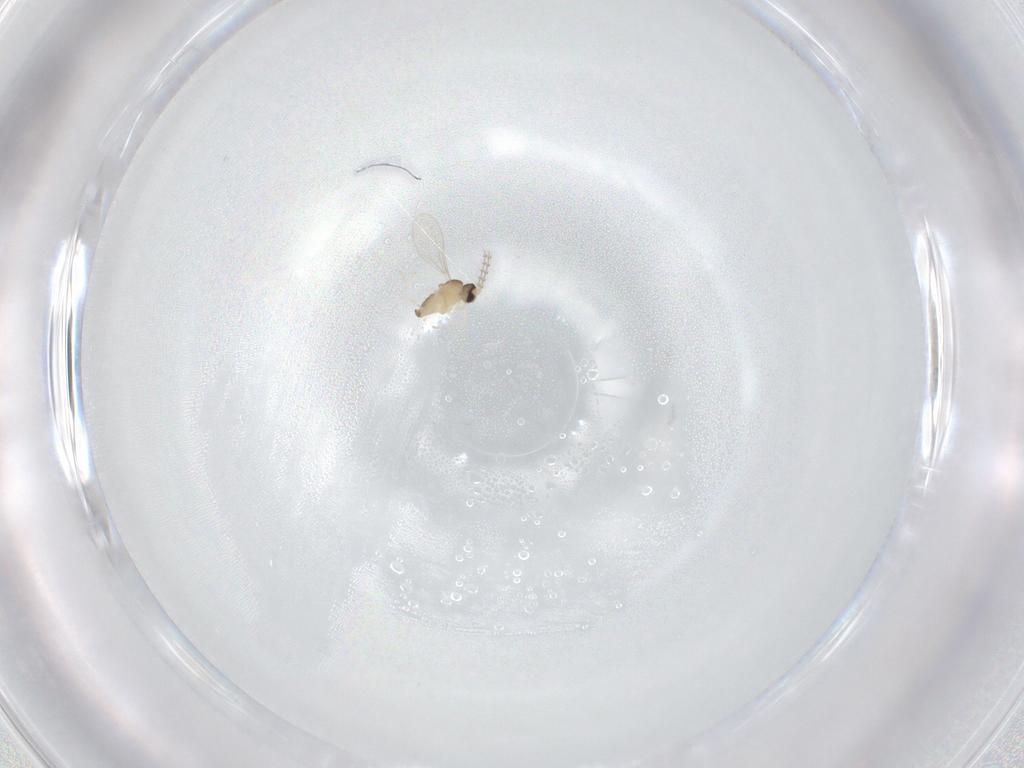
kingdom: Animalia
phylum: Arthropoda
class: Insecta
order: Diptera
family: Cecidomyiidae
